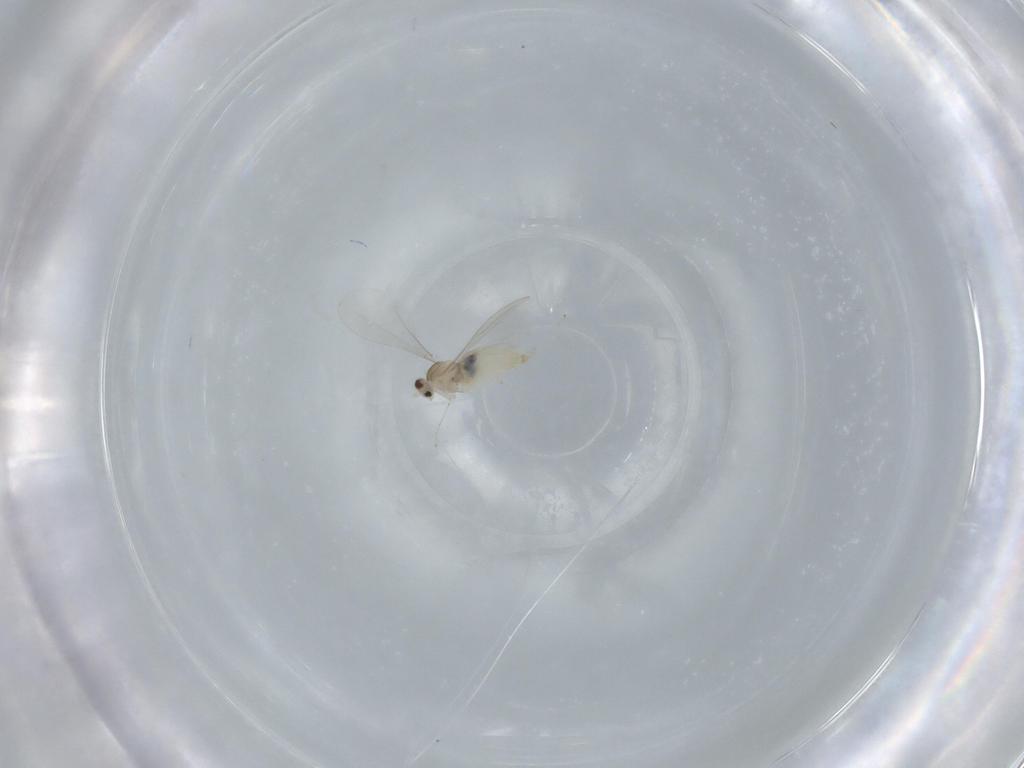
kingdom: Animalia
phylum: Arthropoda
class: Insecta
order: Diptera
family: Cecidomyiidae
